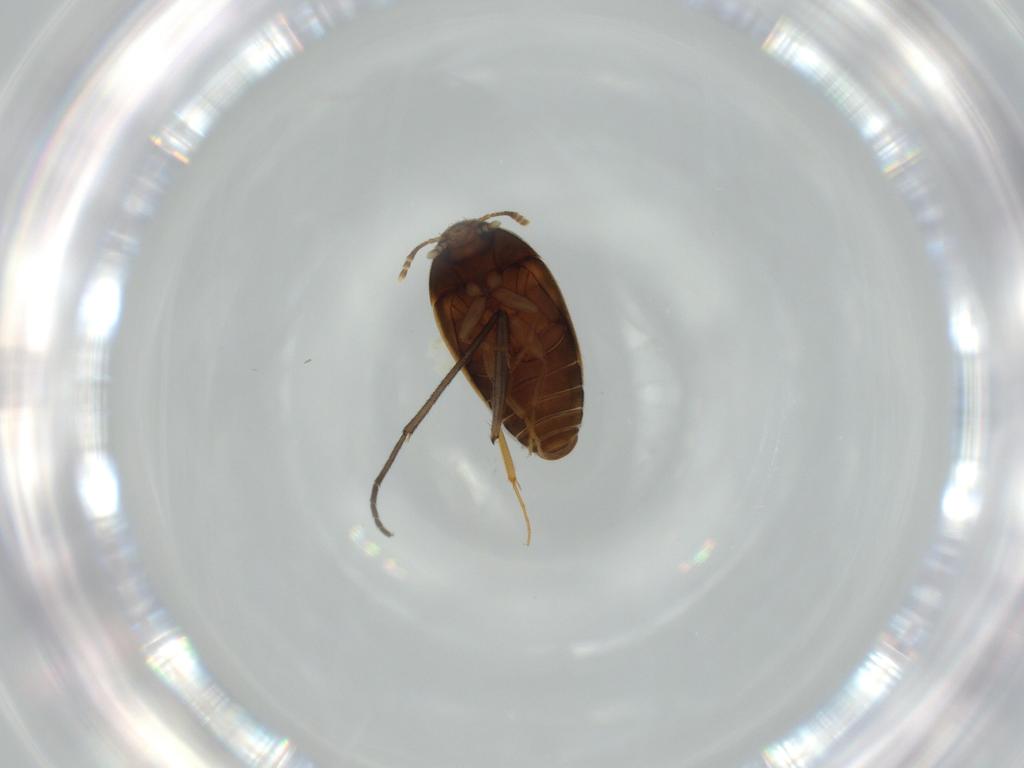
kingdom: Animalia
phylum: Arthropoda
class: Insecta
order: Coleoptera
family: Mycetophagidae
